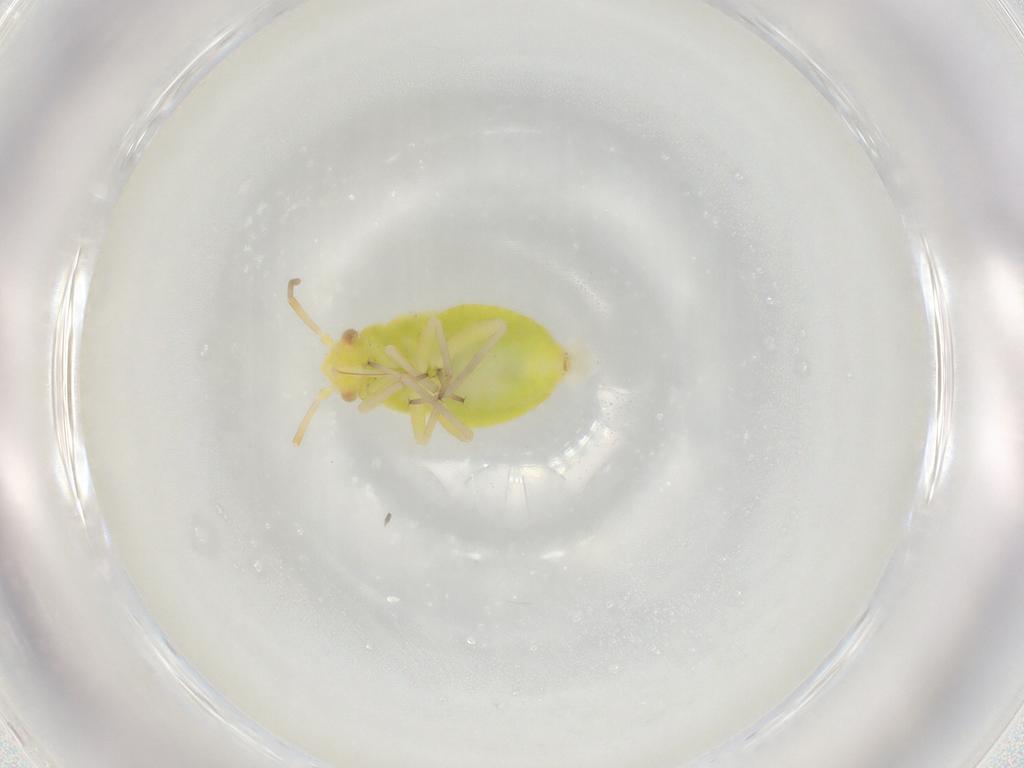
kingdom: Animalia
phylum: Arthropoda
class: Insecta
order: Hemiptera
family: Miridae
